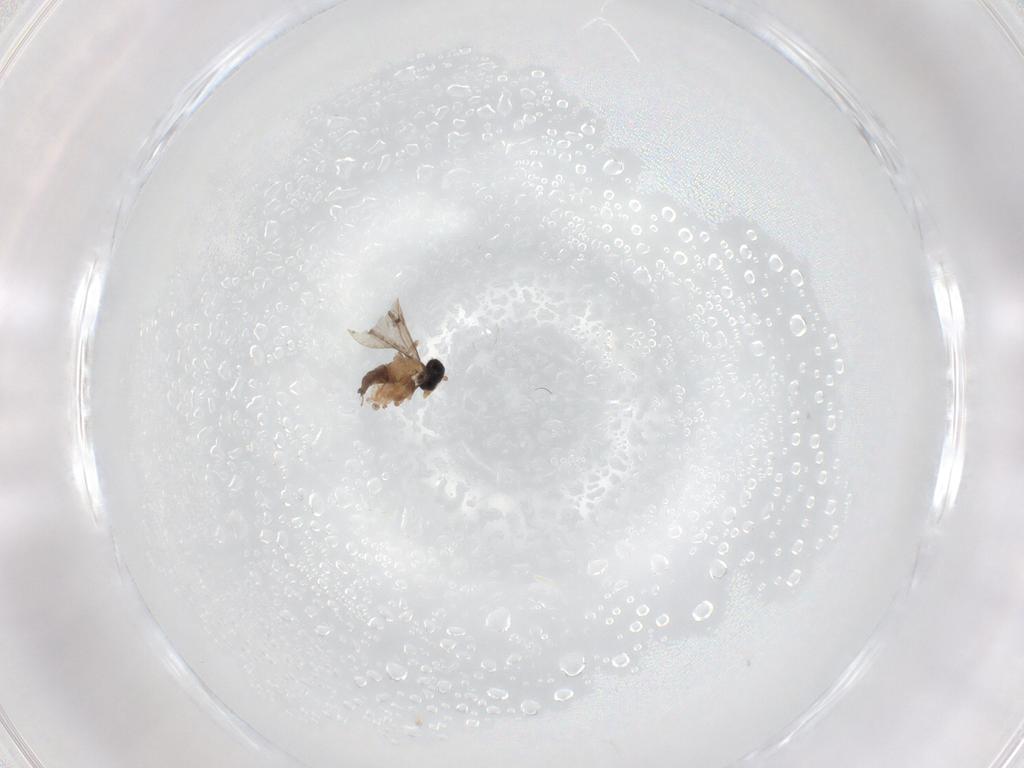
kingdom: Animalia
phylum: Arthropoda
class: Insecta
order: Diptera
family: Cecidomyiidae
